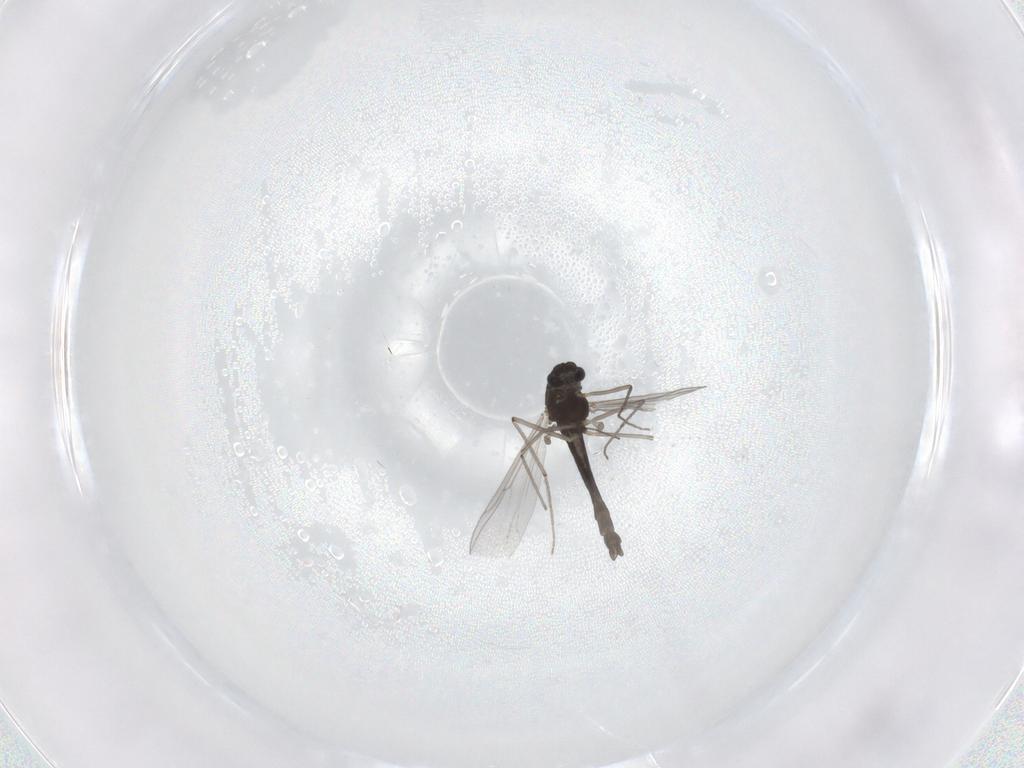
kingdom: Animalia
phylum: Arthropoda
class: Insecta
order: Diptera
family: Chironomidae
